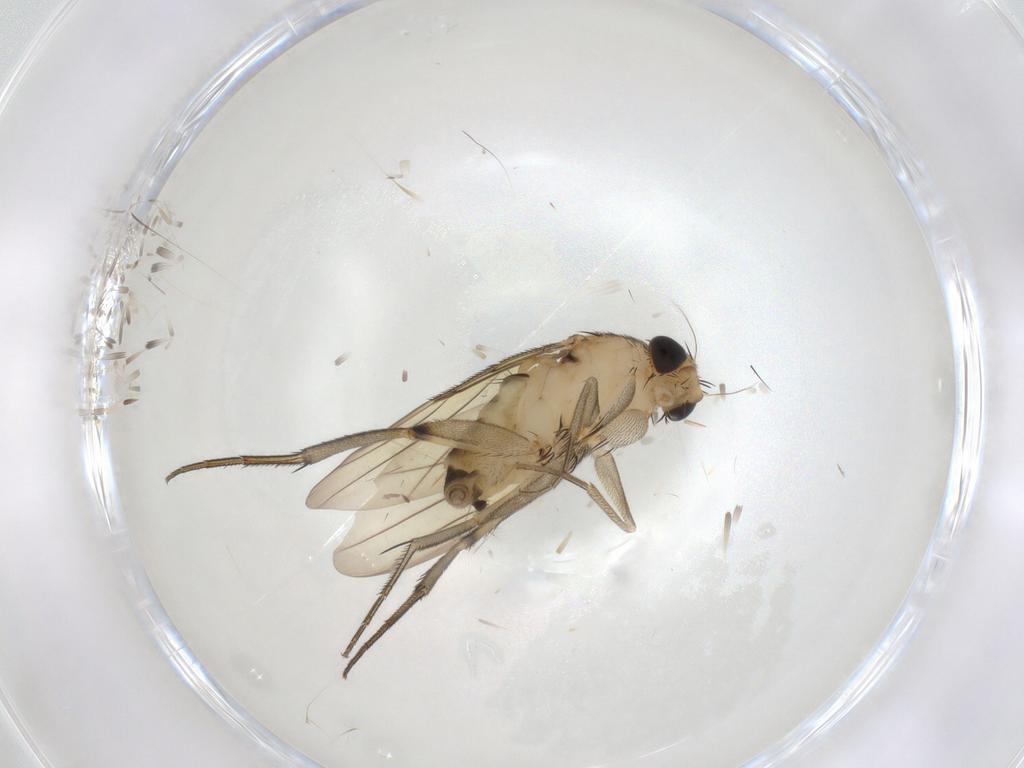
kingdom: Animalia
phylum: Arthropoda
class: Insecta
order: Diptera
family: Phoridae
